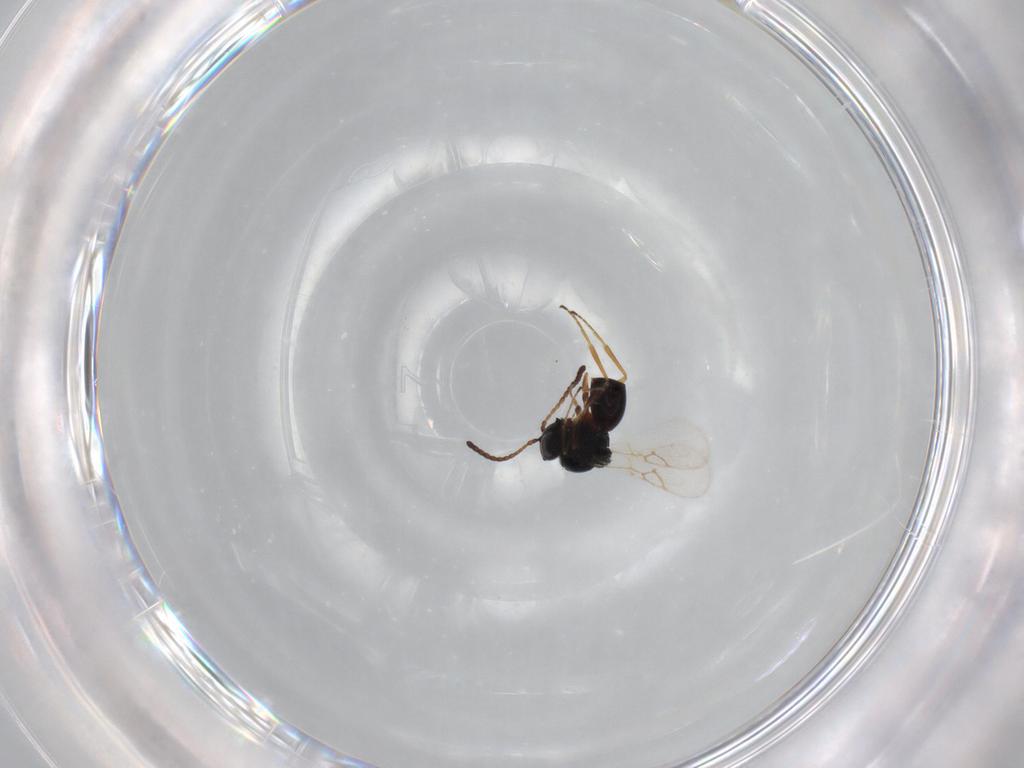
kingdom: Animalia
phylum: Arthropoda
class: Insecta
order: Hymenoptera
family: Figitidae
